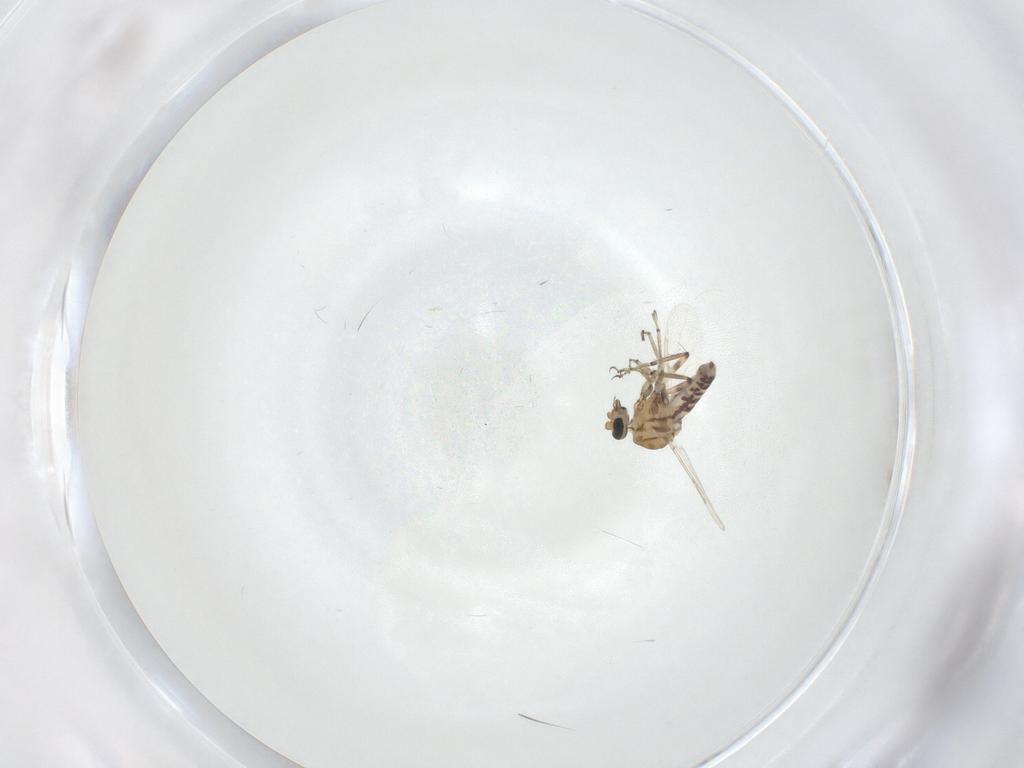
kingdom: Animalia
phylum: Arthropoda
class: Insecta
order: Diptera
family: Ceratopogonidae
